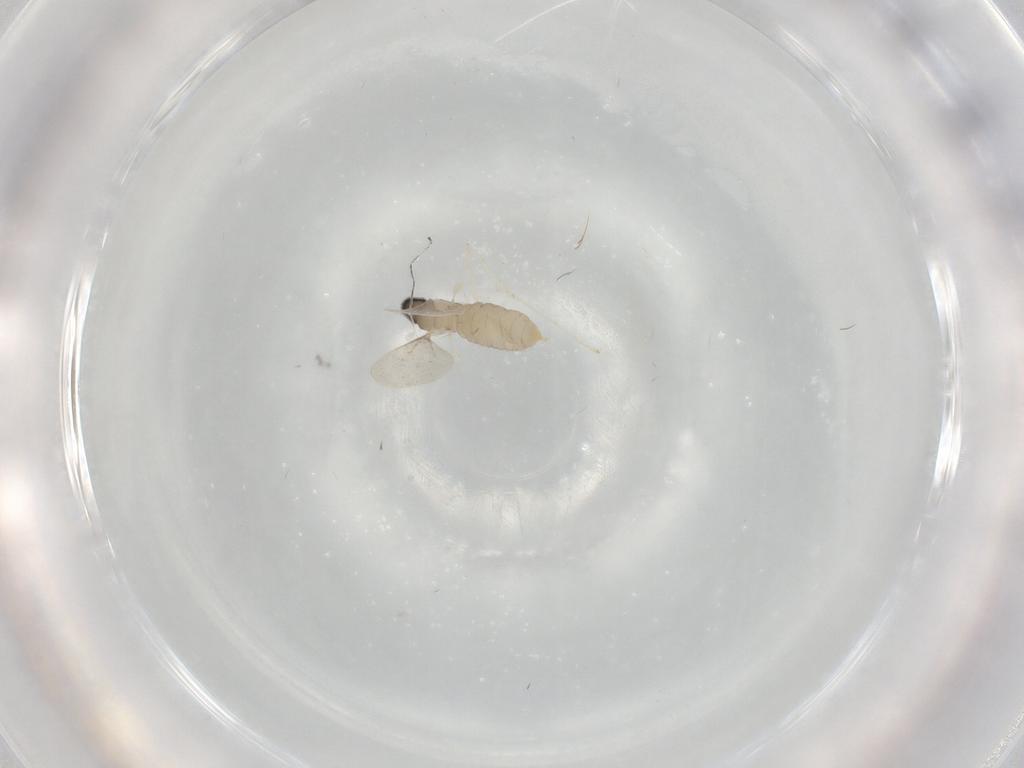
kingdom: Animalia
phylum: Arthropoda
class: Insecta
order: Diptera
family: Cecidomyiidae
